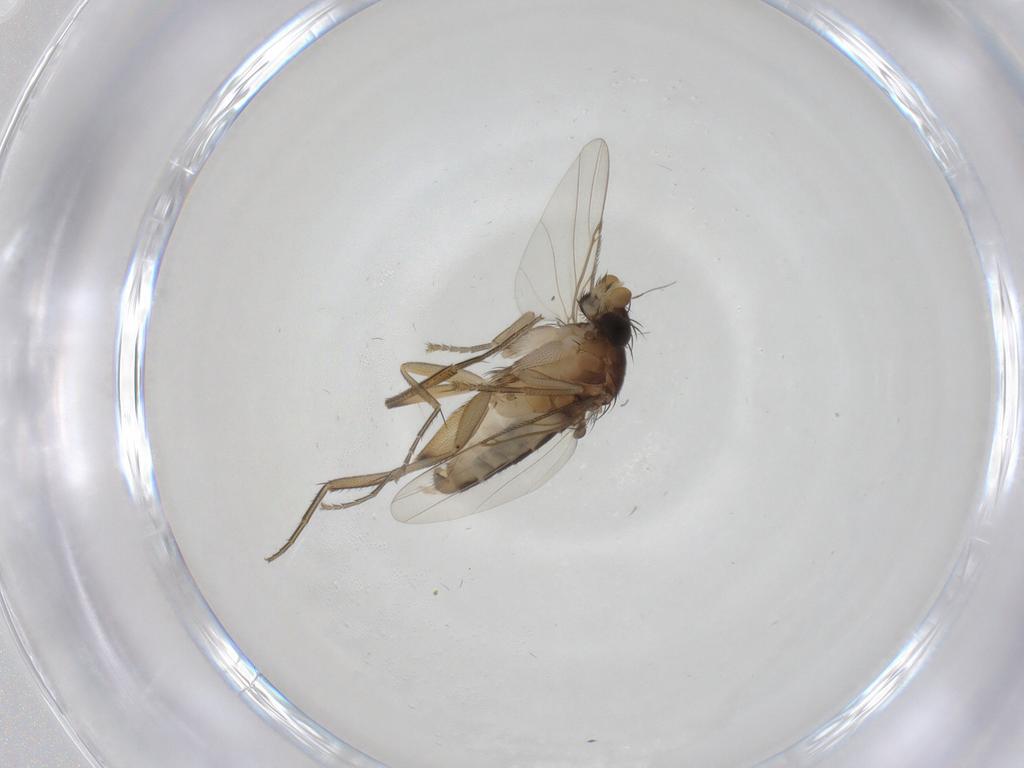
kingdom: Animalia
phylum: Arthropoda
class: Insecta
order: Diptera
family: Phoridae
